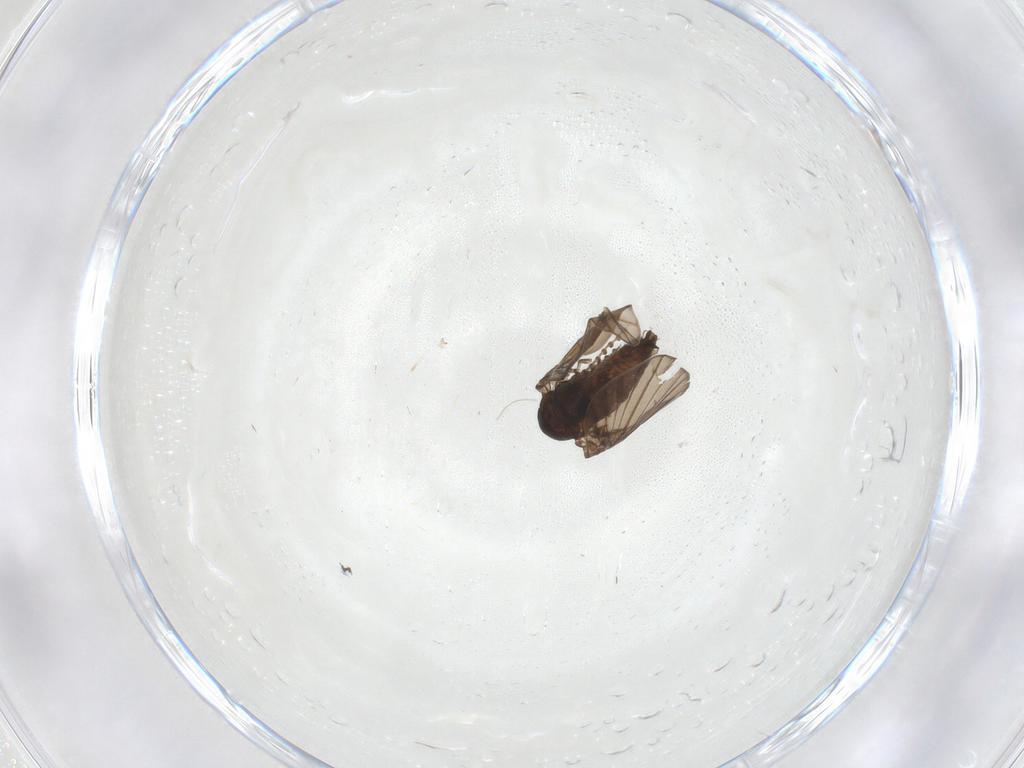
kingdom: Animalia
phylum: Arthropoda
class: Insecta
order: Diptera
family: Psychodidae
